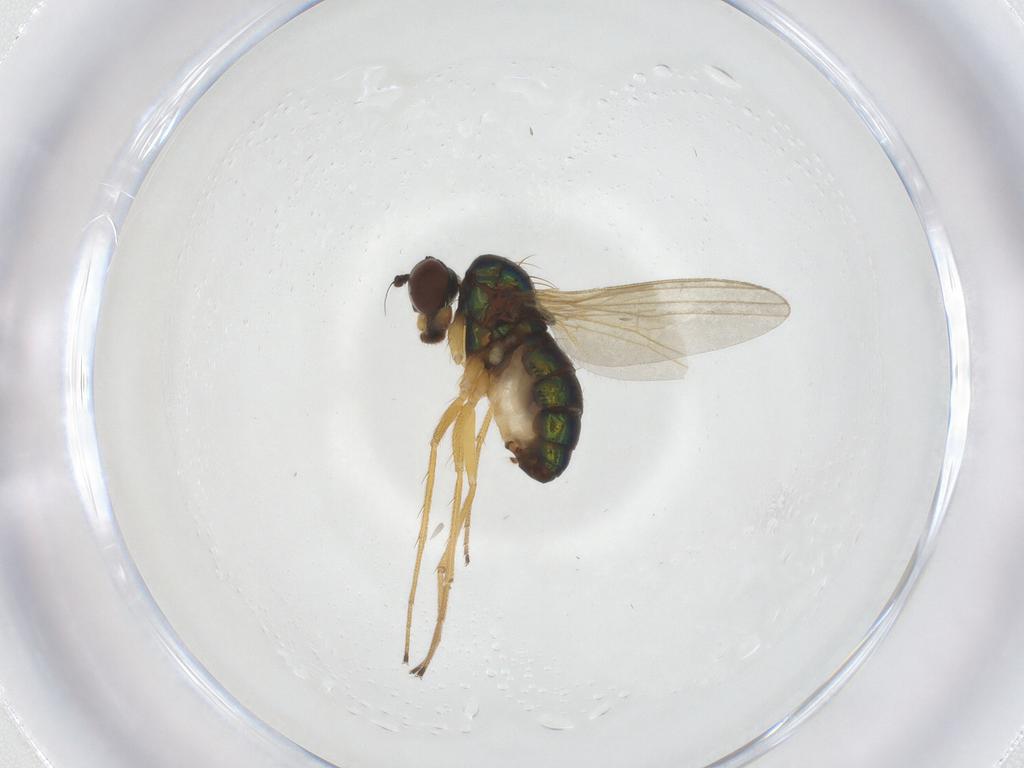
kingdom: Animalia
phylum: Arthropoda
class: Insecta
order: Diptera
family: Dolichopodidae
